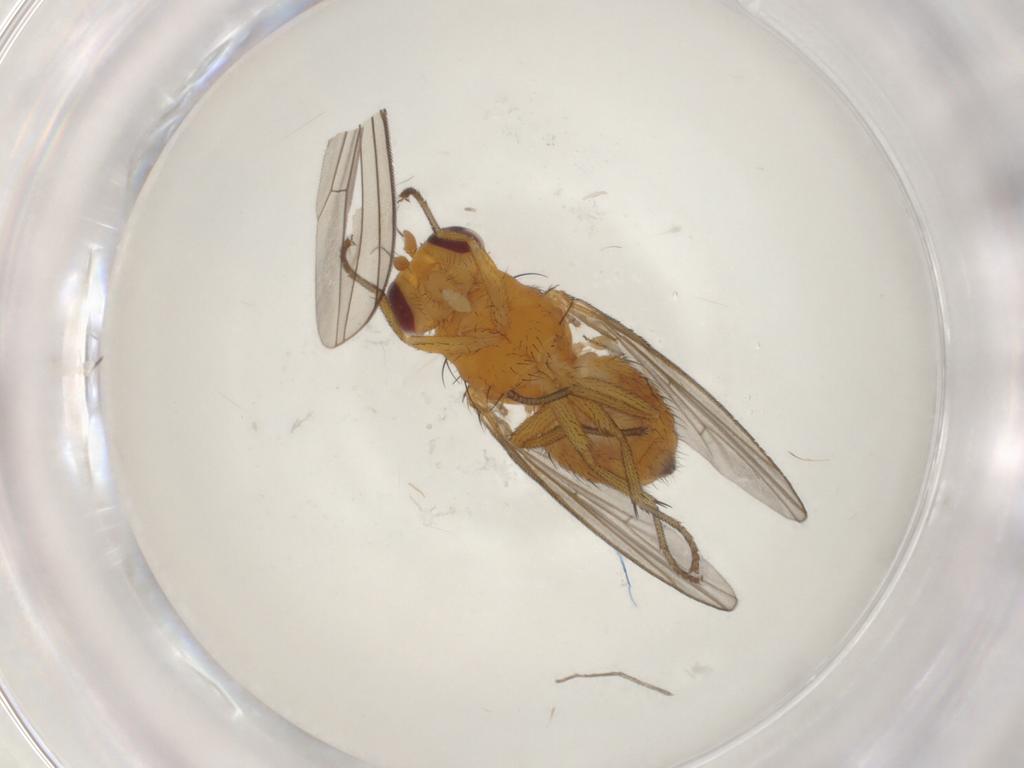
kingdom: Animalia
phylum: Arthropoda
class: Insecta
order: Diptera
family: Lauxaniidae
